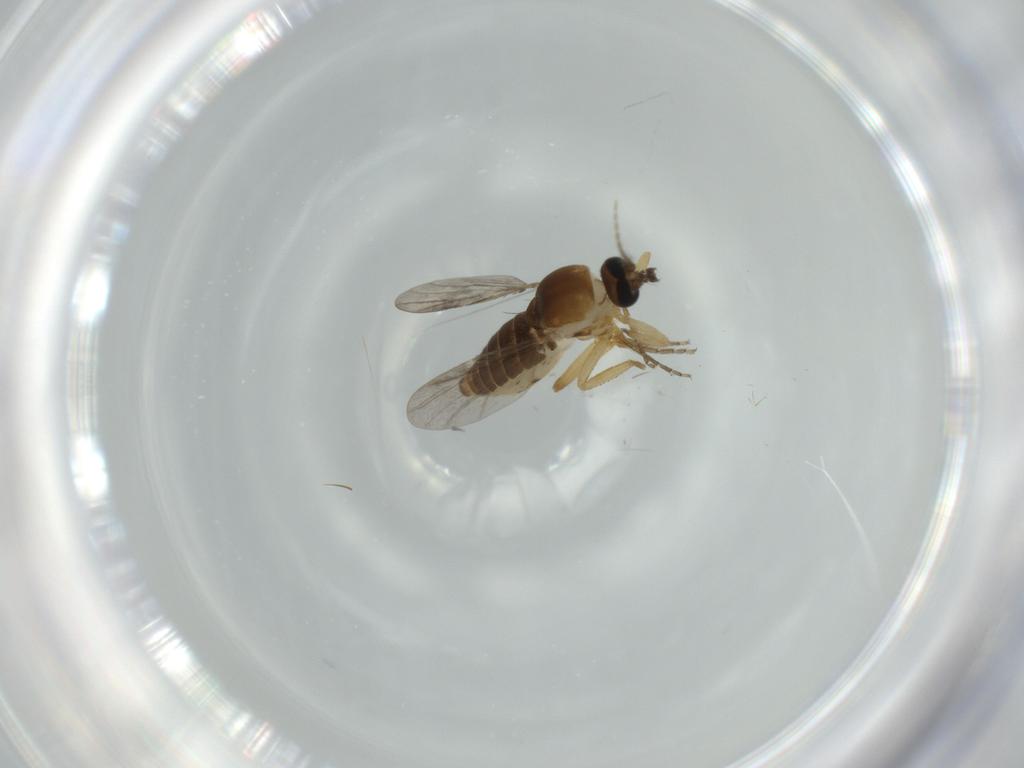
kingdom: Animalia
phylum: Arthropoda
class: Insecta
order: Diptera
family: Ceratopogonidae
